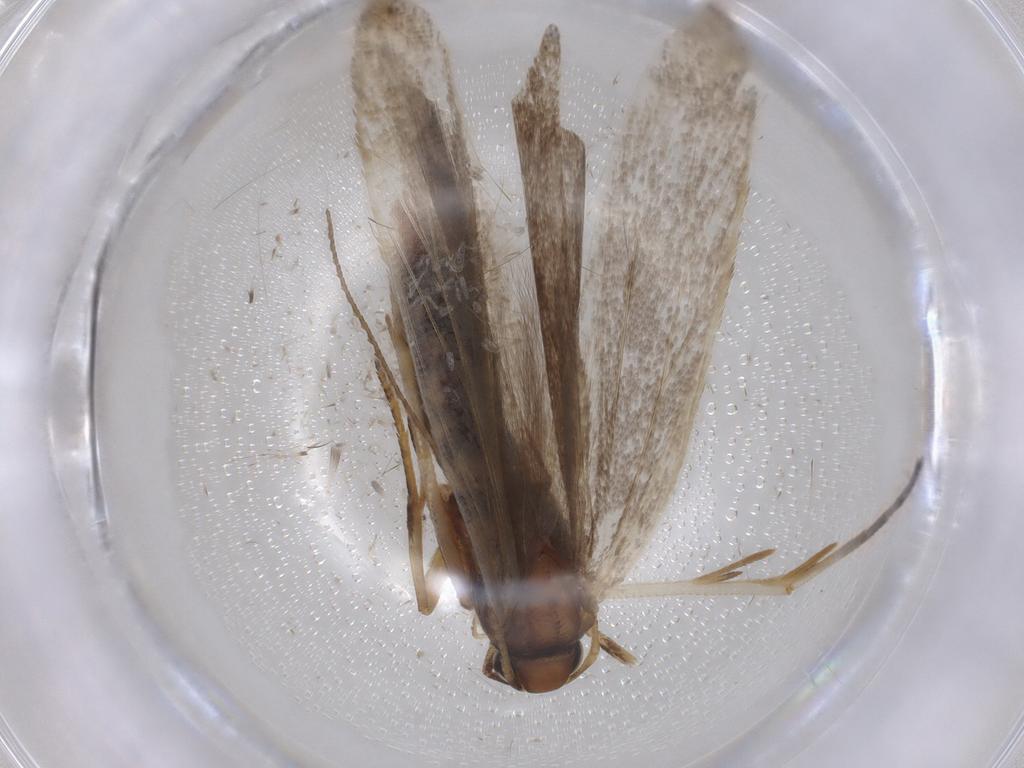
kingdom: Animalia
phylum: Arthropoda
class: Insecta
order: Lepidoptera
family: Gelechiidae
